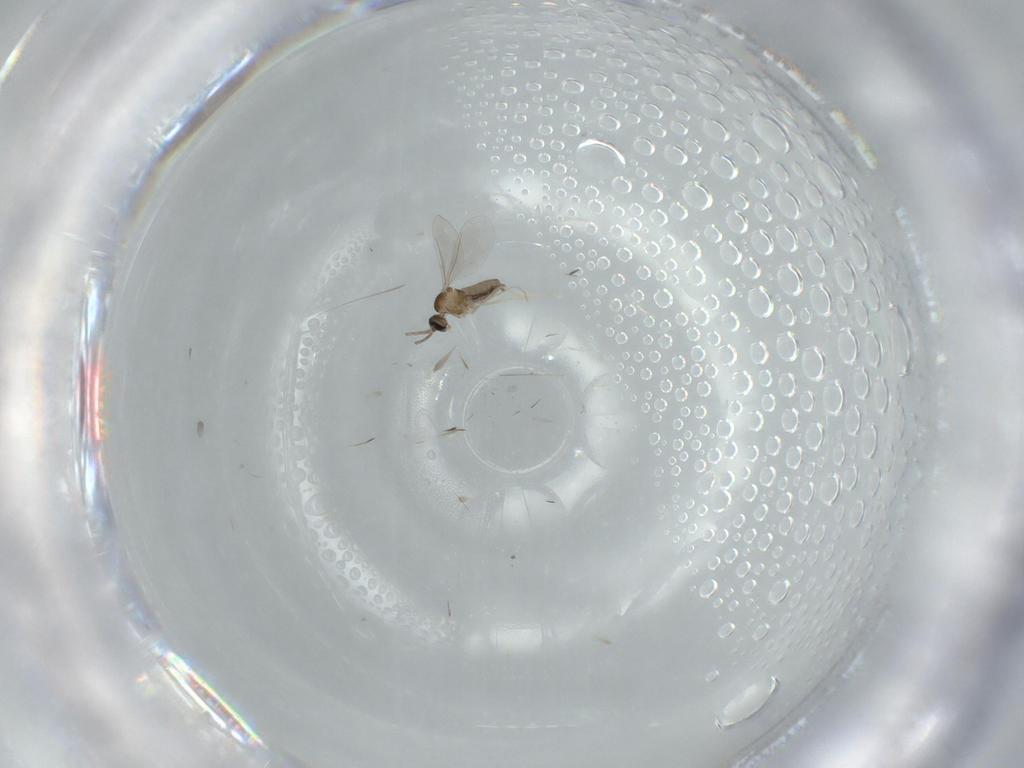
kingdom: Animalia
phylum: Arthropoda
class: Insecta
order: Diptera
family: Cecidomyiidae
